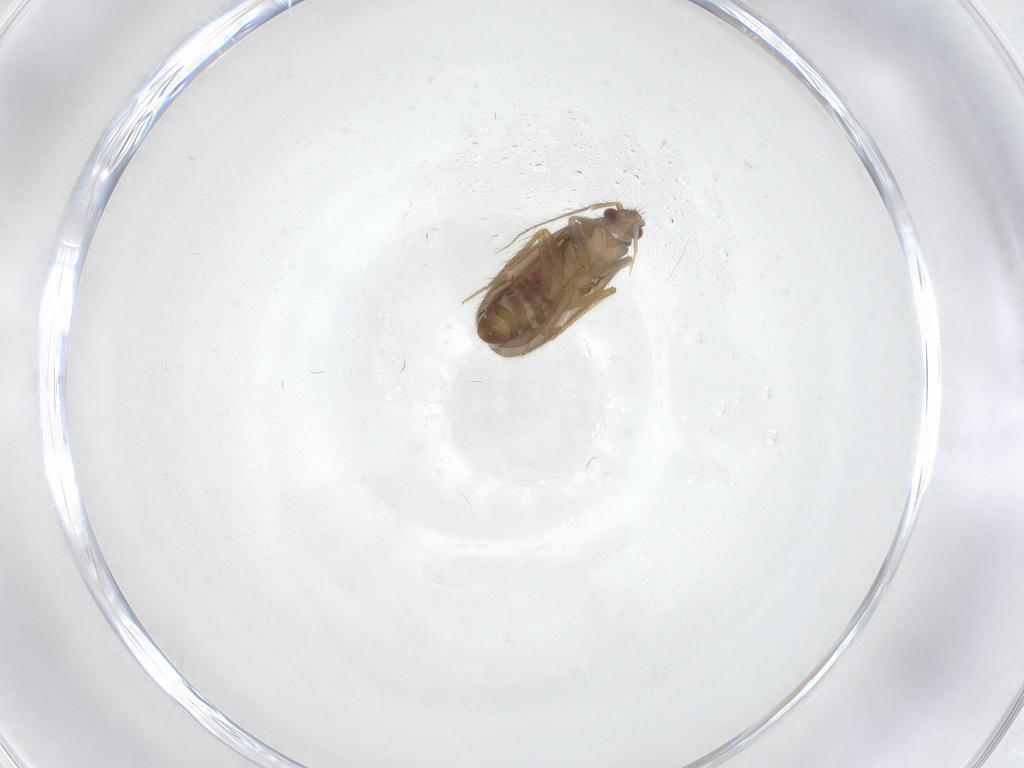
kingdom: Animalia
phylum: Arthropoda
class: Insecta
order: Hemiptera
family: Ceratocombidae
